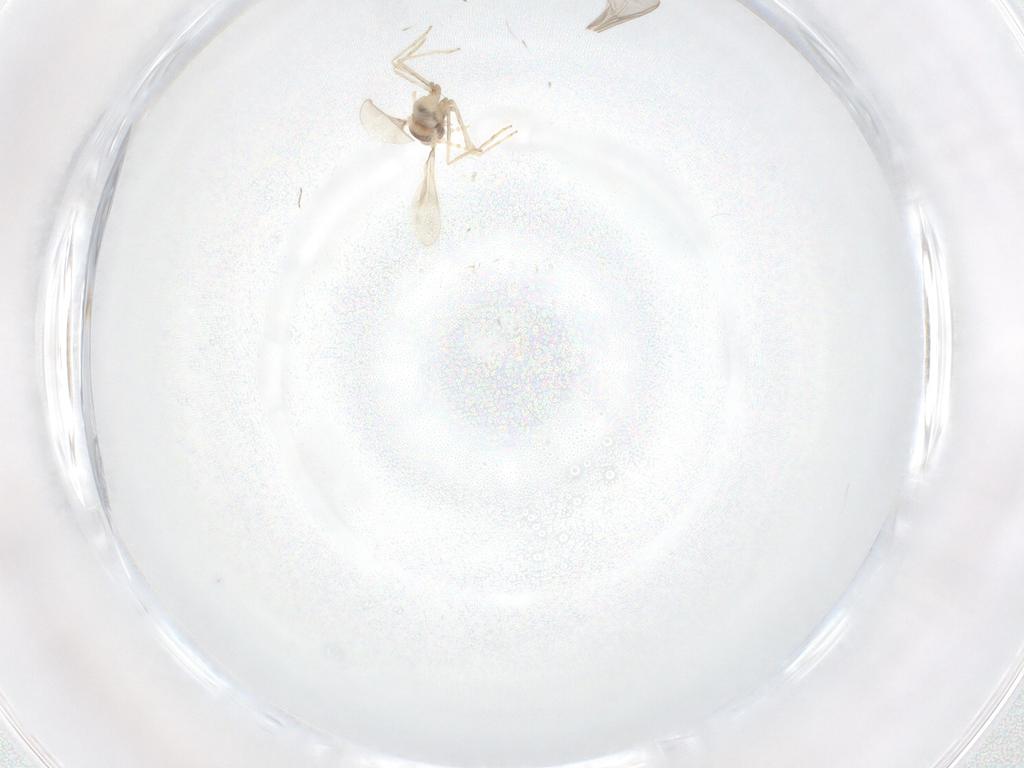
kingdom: Animalia
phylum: Arthropoda
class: Insecta
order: Diptera
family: Cecidomyiidae
